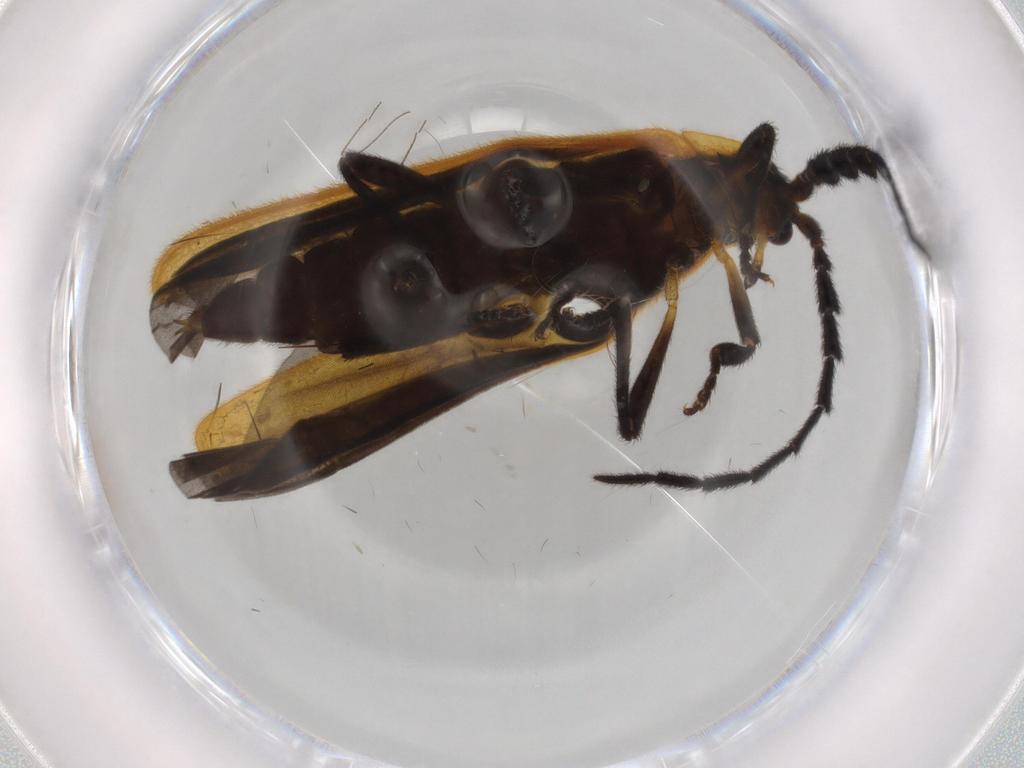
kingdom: Animalia
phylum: Arthropoda
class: Insecta
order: Coleoptera
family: Lycidae
